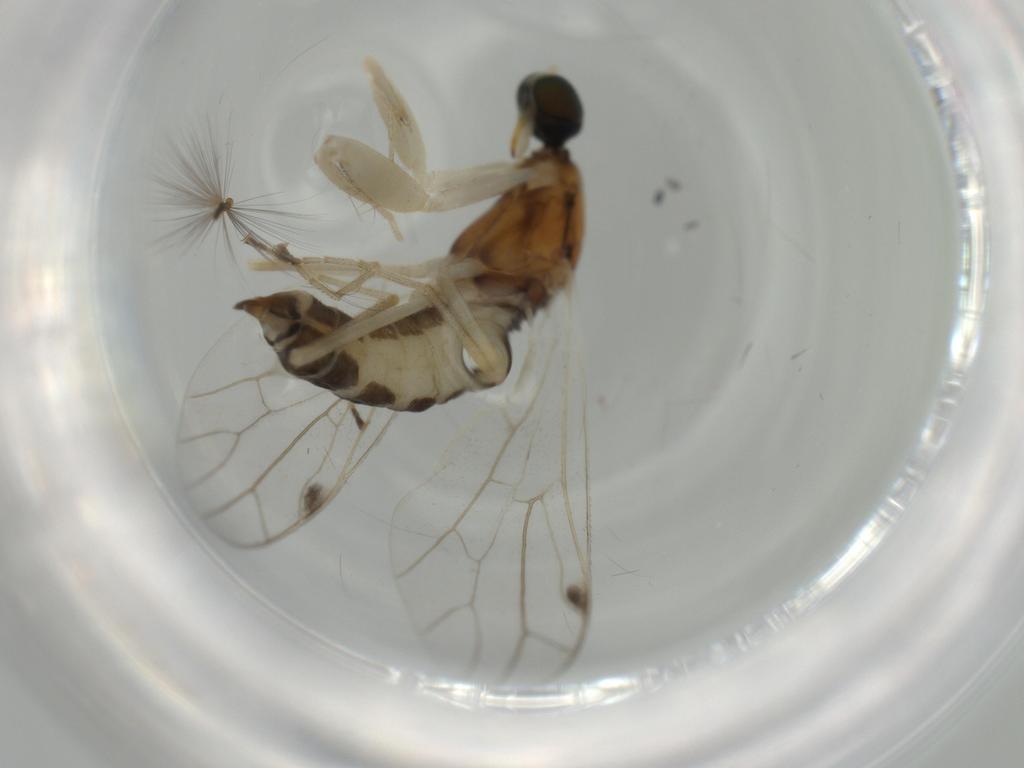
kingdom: Animalia
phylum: Arthropoda
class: Insecta
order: Diptera
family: Empididae
